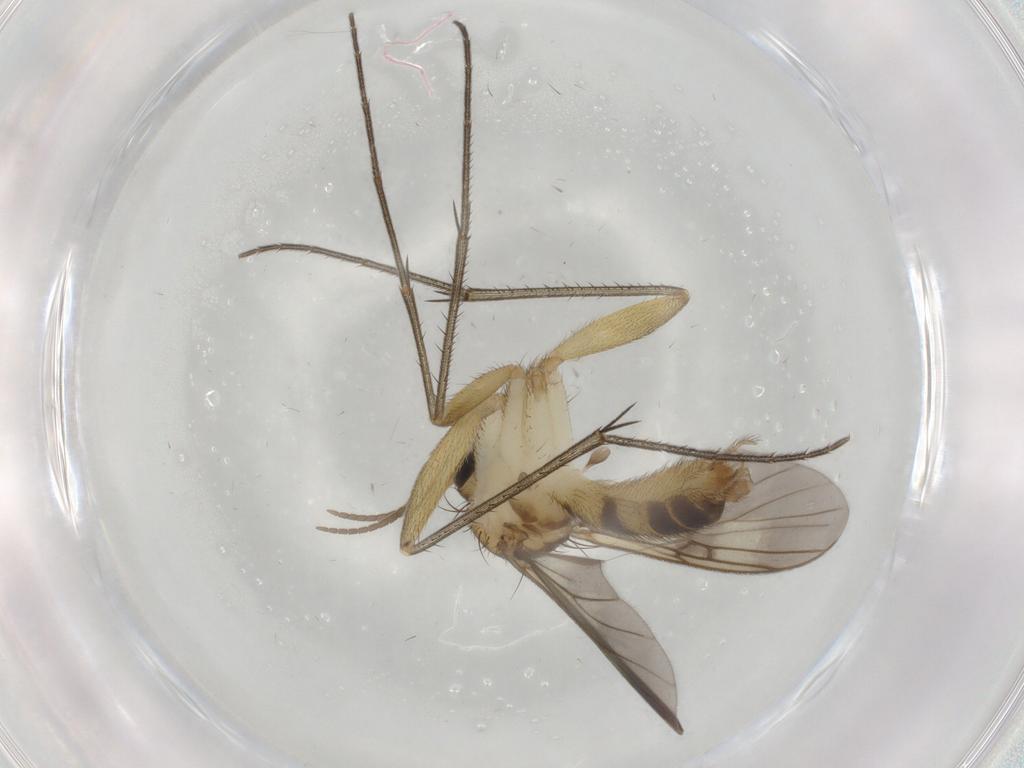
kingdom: Animalia
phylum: Arthropoda
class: Insecta
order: Diptera
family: Mycetophilidae
